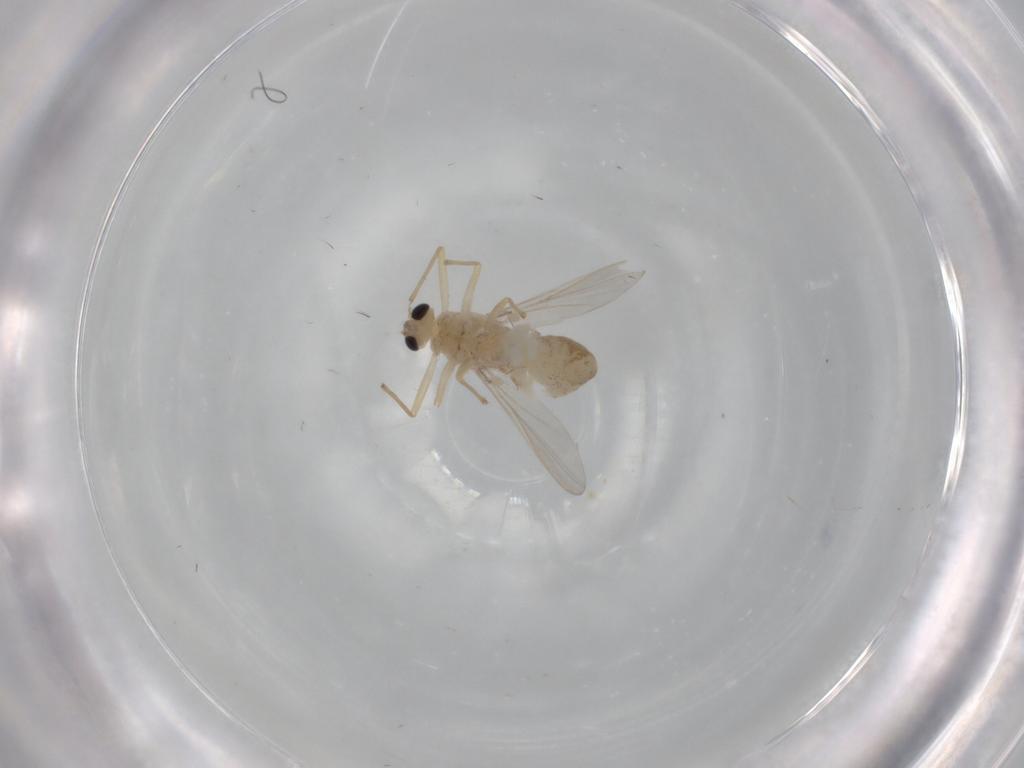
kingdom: Animalia
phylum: Arthropoda
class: Insecta
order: Diptera
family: Chironomidae
